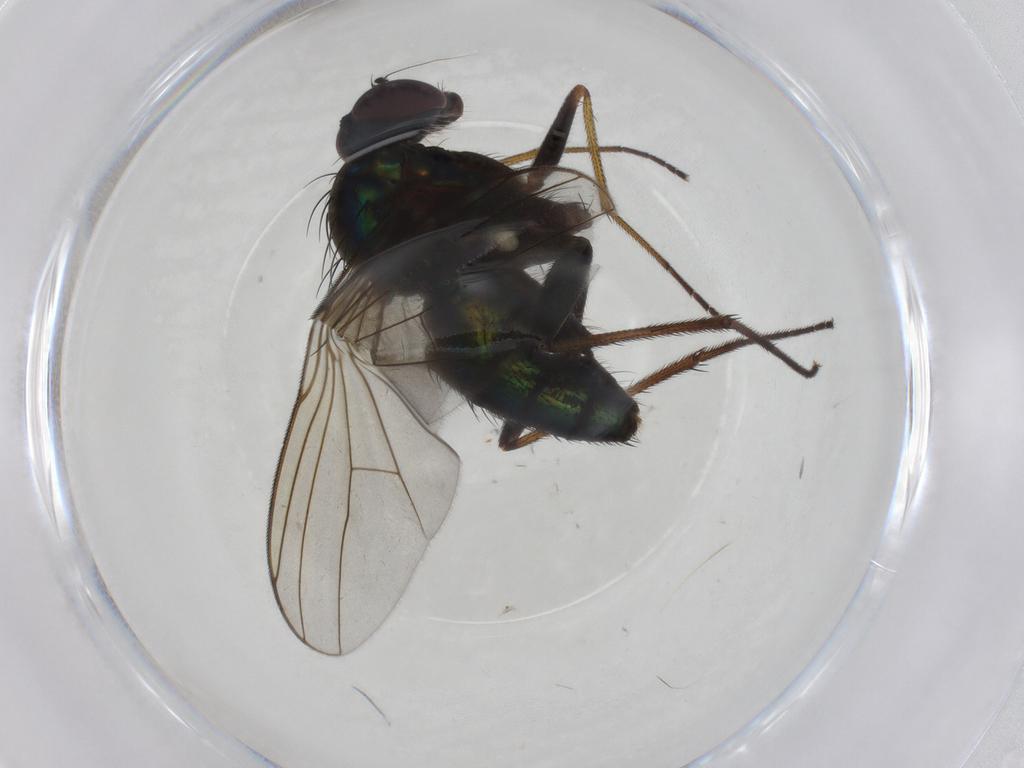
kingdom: Animalia
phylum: Arthropoda
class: Insecta
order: Diptera
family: Dolichopodidae
